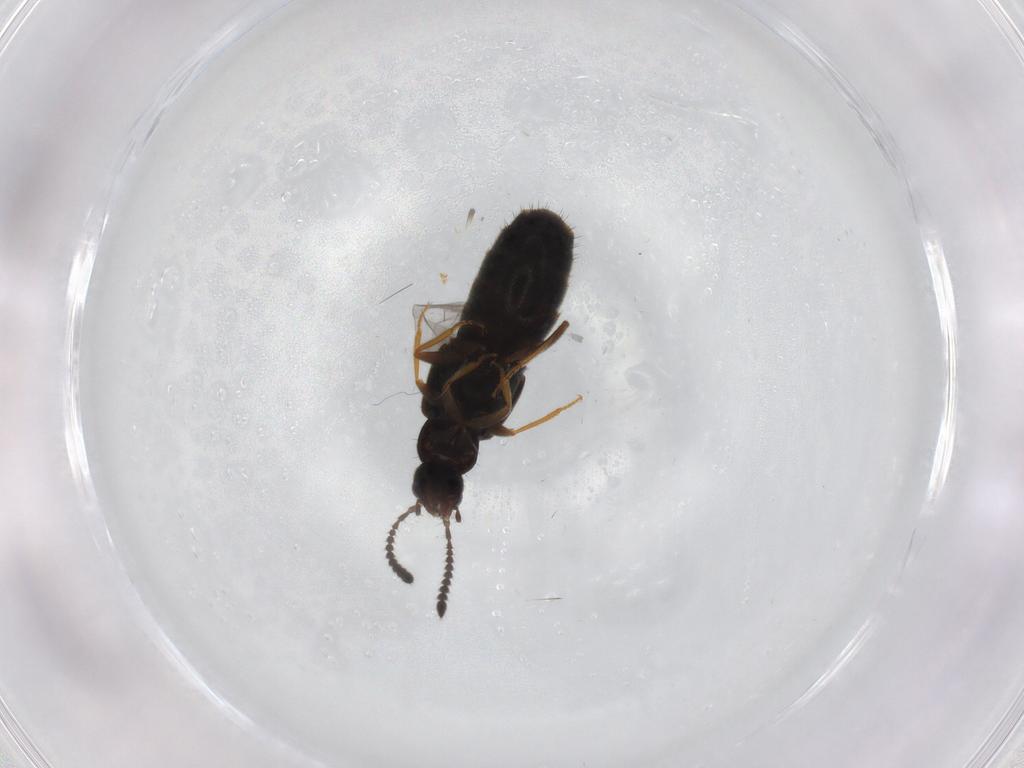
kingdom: Animalia
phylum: Arthropoda
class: Insecta
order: Coleoptera
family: Staphylinidae
